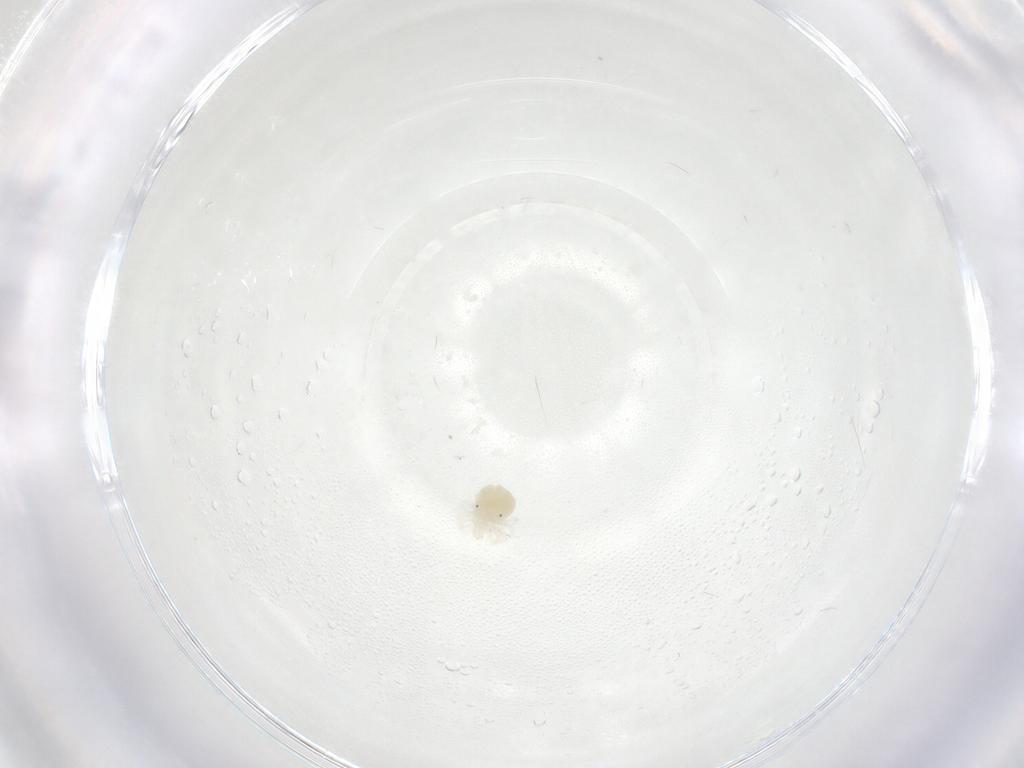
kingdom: Animalia
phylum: Arthropoda
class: Arachnida
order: Trombidiformes
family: Anystidae
